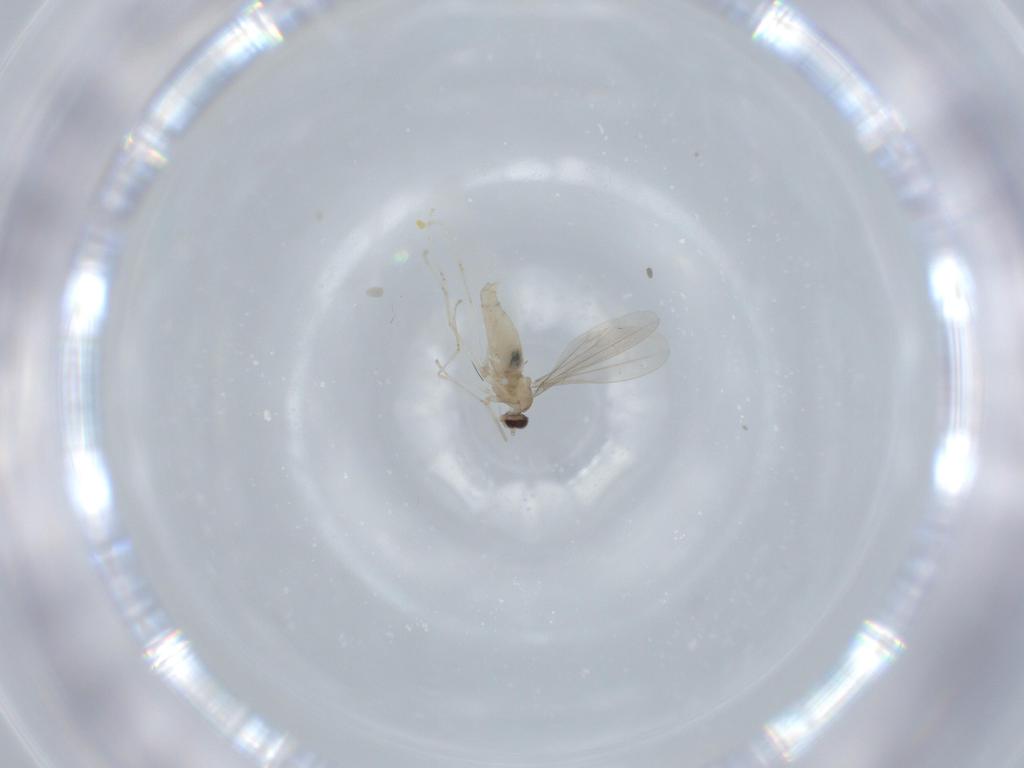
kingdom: Animalia
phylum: Arthropoda
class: Insecta
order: Diptera
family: Cecidomyiidae
